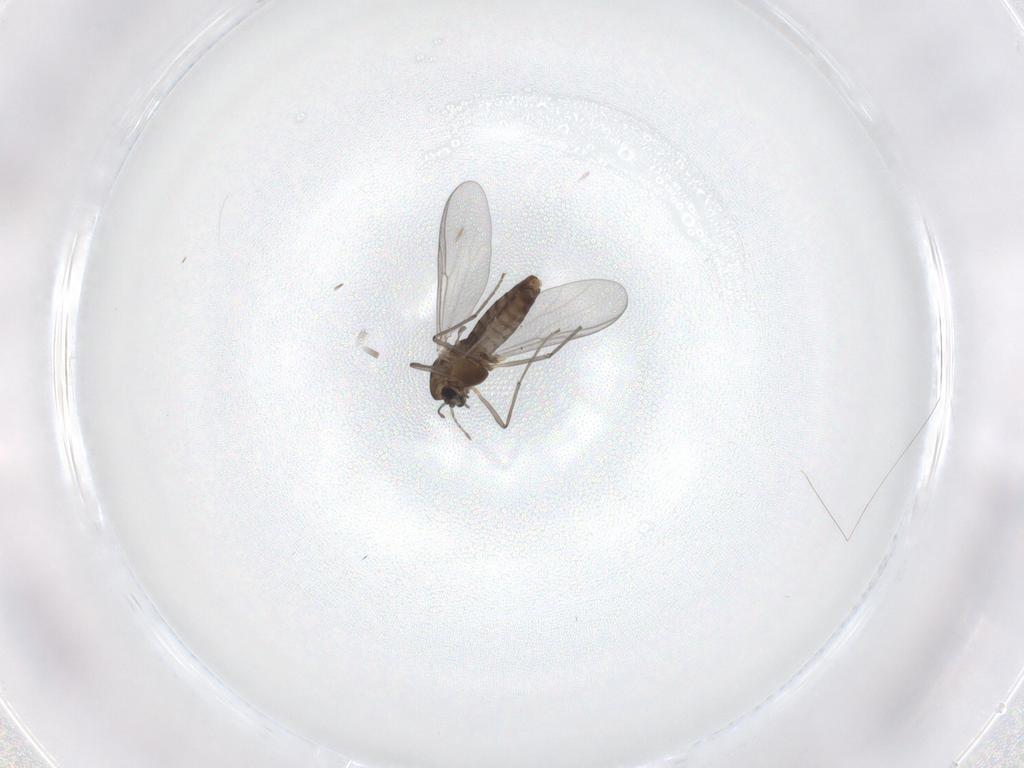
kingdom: Animalia
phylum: Arthropoda
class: Insecta
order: Diptera
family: Chironomidae
